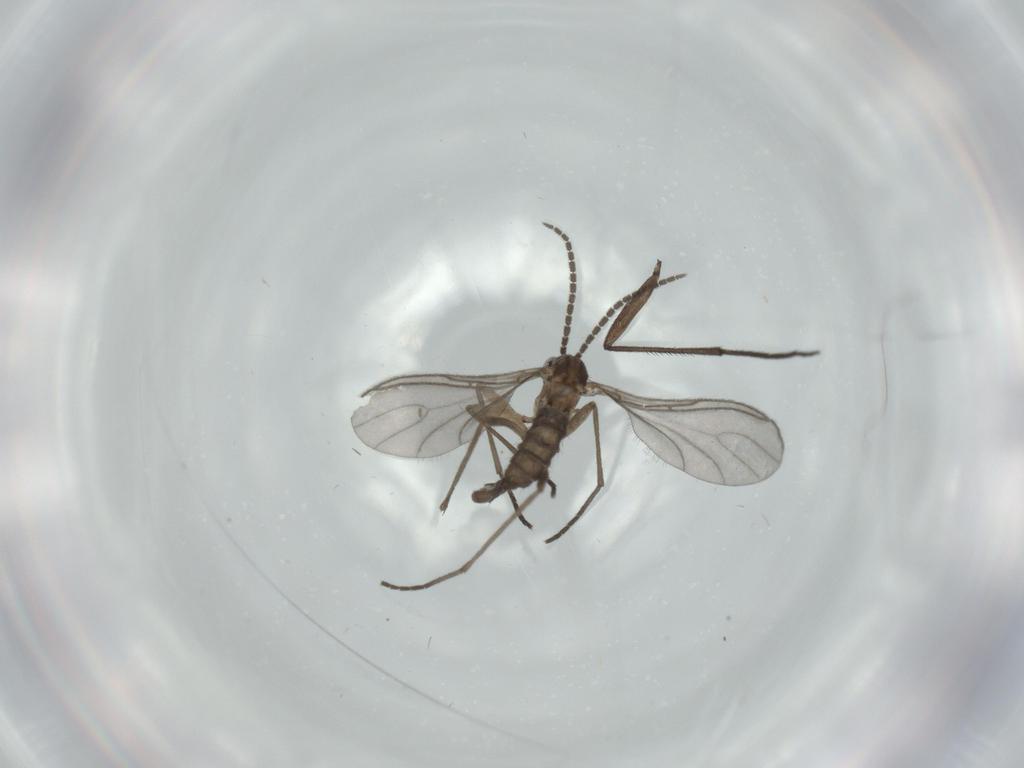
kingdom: Animalia
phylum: Arthropoda
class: Insecta
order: Diptera
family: Sciaridae
